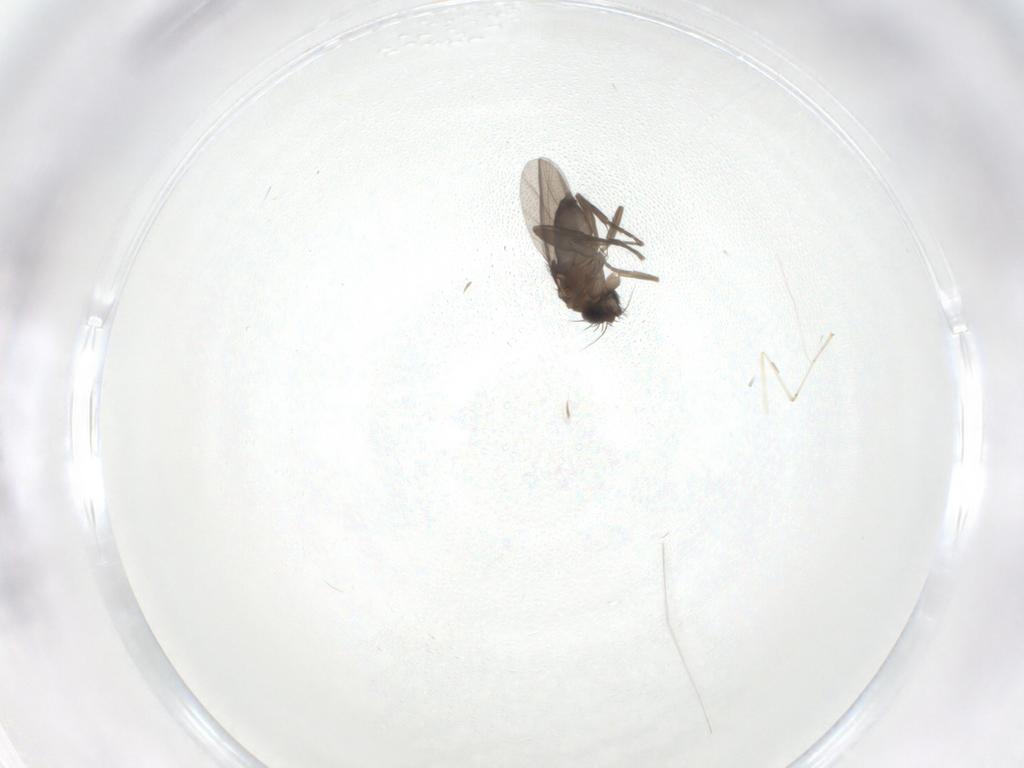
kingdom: Animalia
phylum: Arthropoda
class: Insecta
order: Diptera
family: Phoridae
